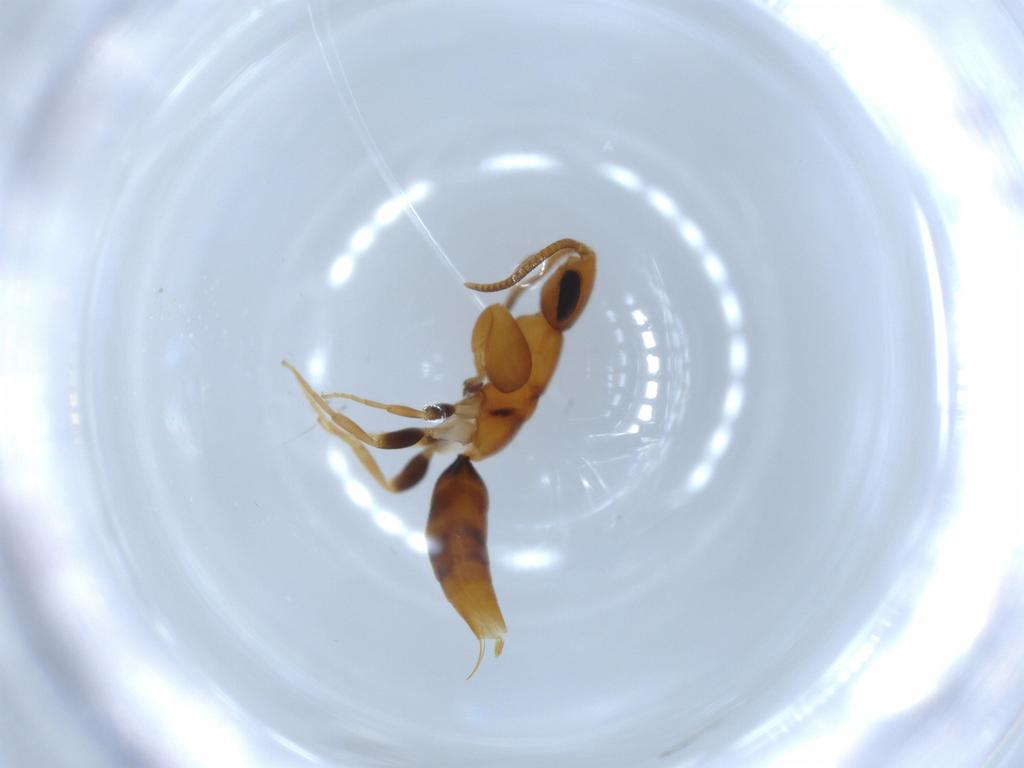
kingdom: Animalia
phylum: Arthropoda
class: Insecta
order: Hymenoptera
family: Sclerogibbidae
